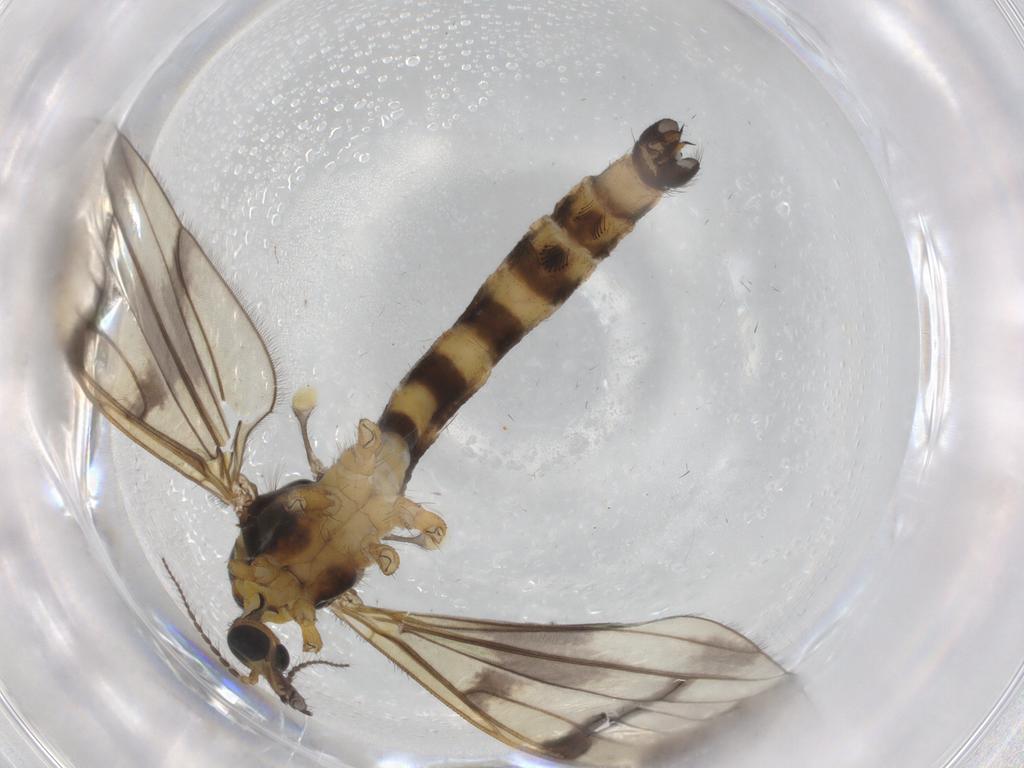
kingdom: Animalia
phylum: Arthropoda
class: Insecta
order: Diptera
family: Limoniidae
